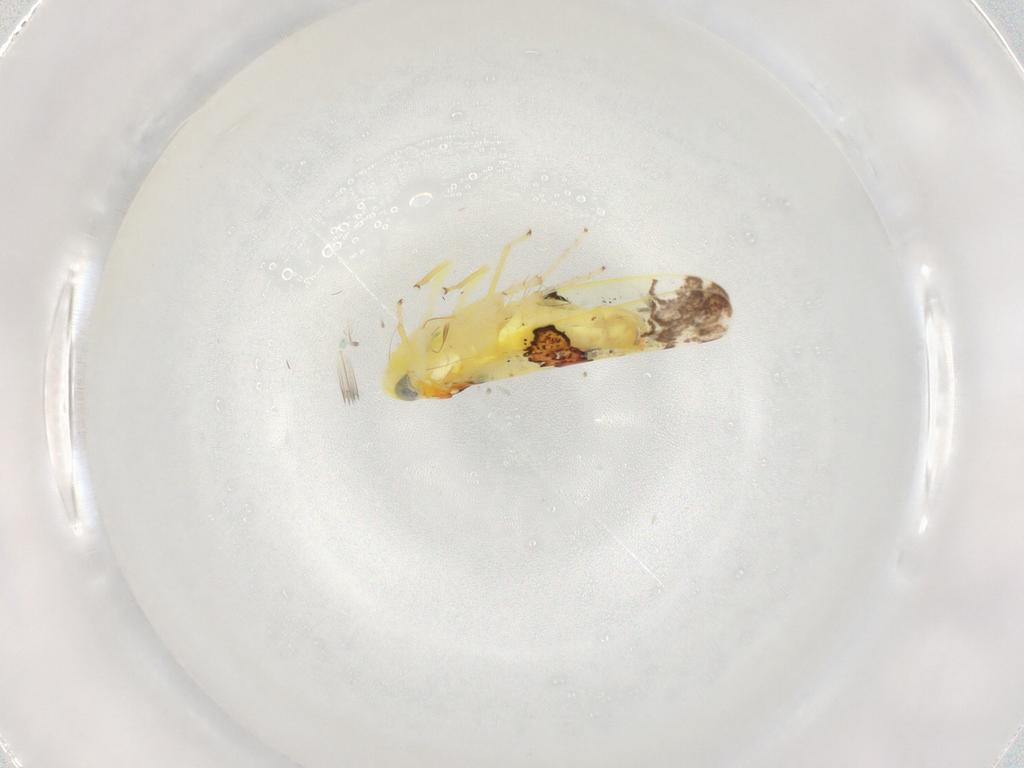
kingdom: Animalia
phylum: Arthropoda
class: Insecta
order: Hemiptera
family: Cicadellidae
